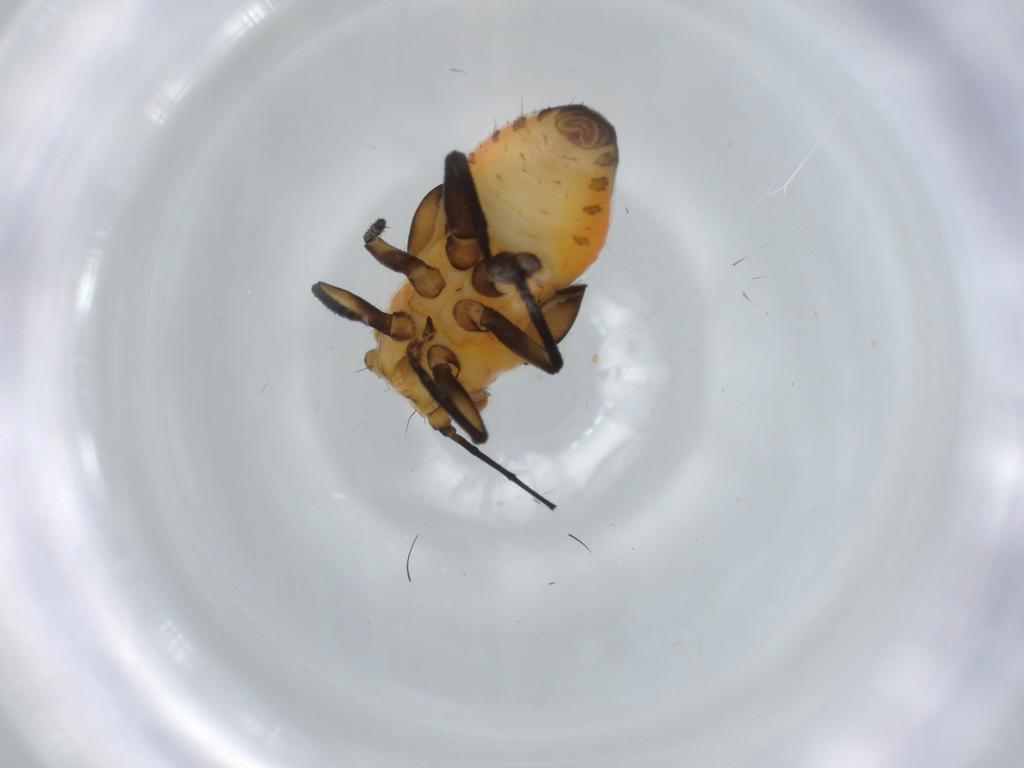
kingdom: Animalia
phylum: Arthropoda
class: Insecta
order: Hemiptera
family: Psyllidae
